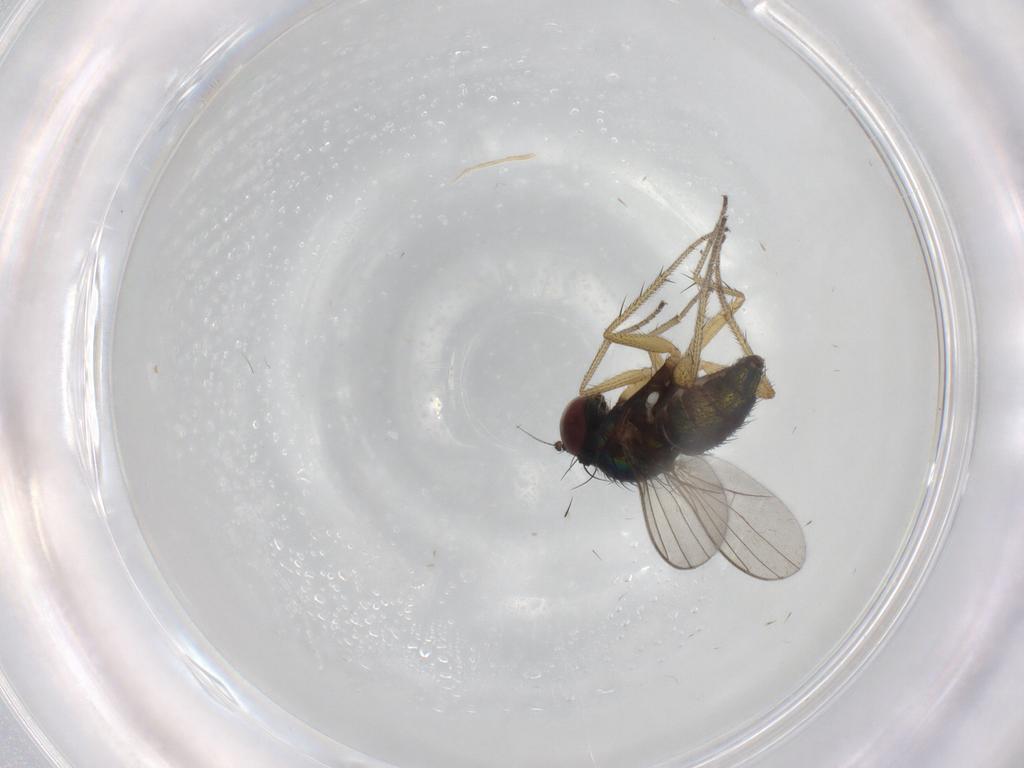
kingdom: Animalia
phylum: Arthropoda
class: Insecta
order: Diptera
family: Dolichopodidae
